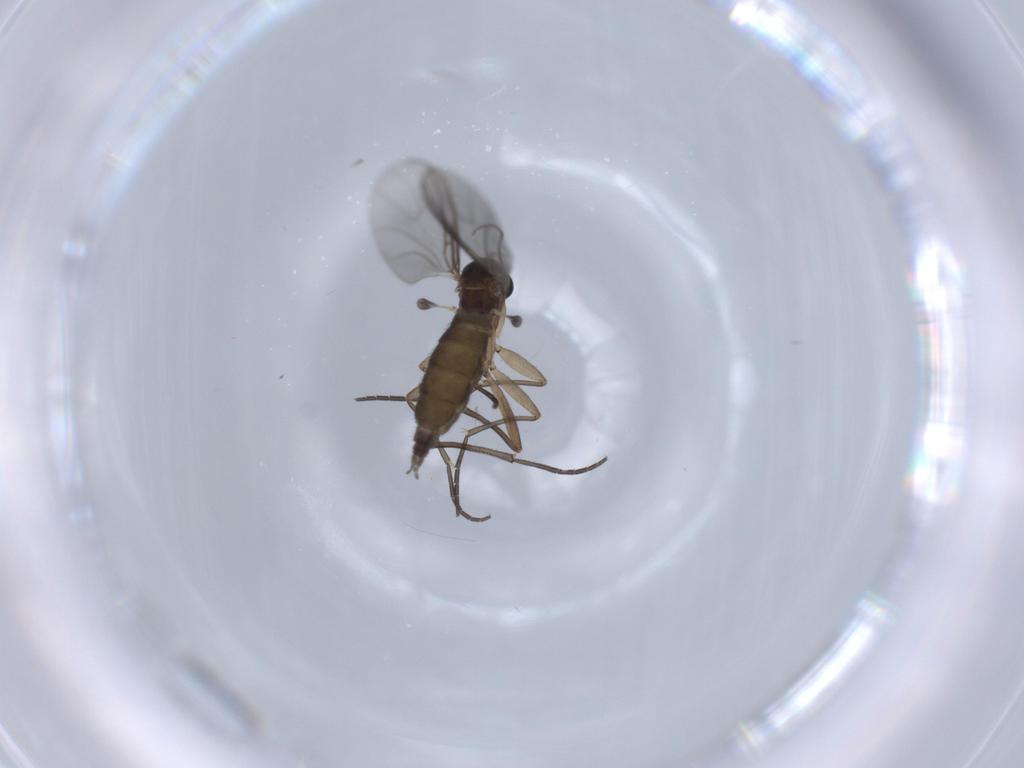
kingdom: Animalia
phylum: Arthropoda
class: Insecta
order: Diptera
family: Sciaridae
